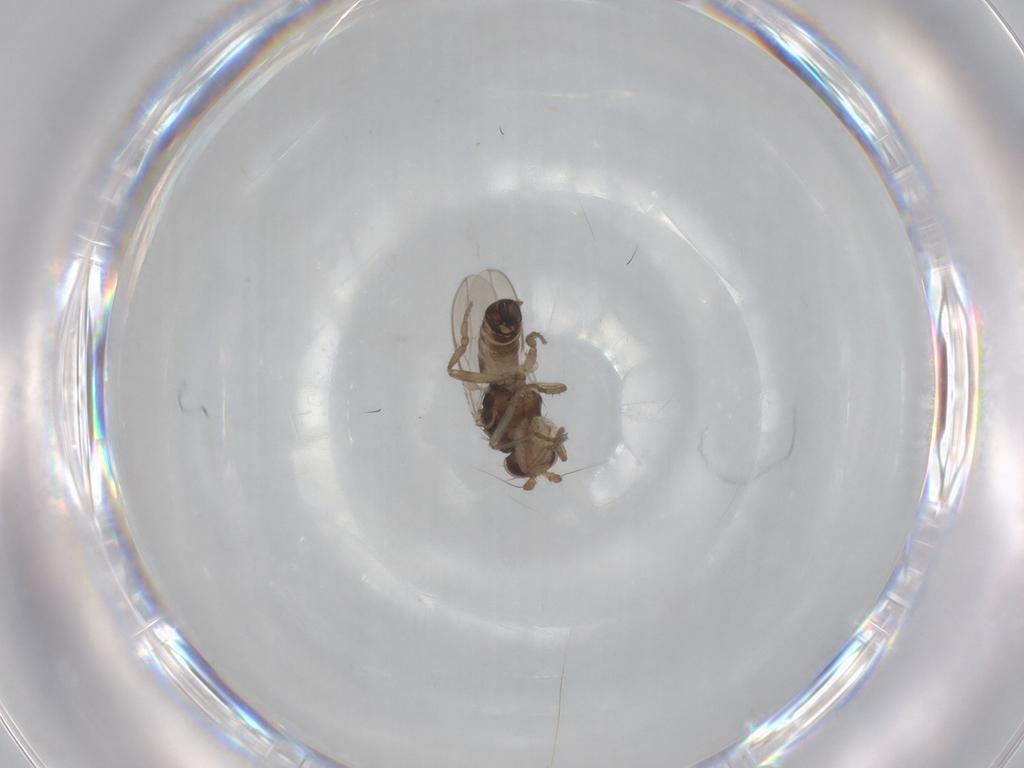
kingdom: Animalia
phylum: Arthropoda
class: Insecta
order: Diptera
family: Sphaeroceridae
